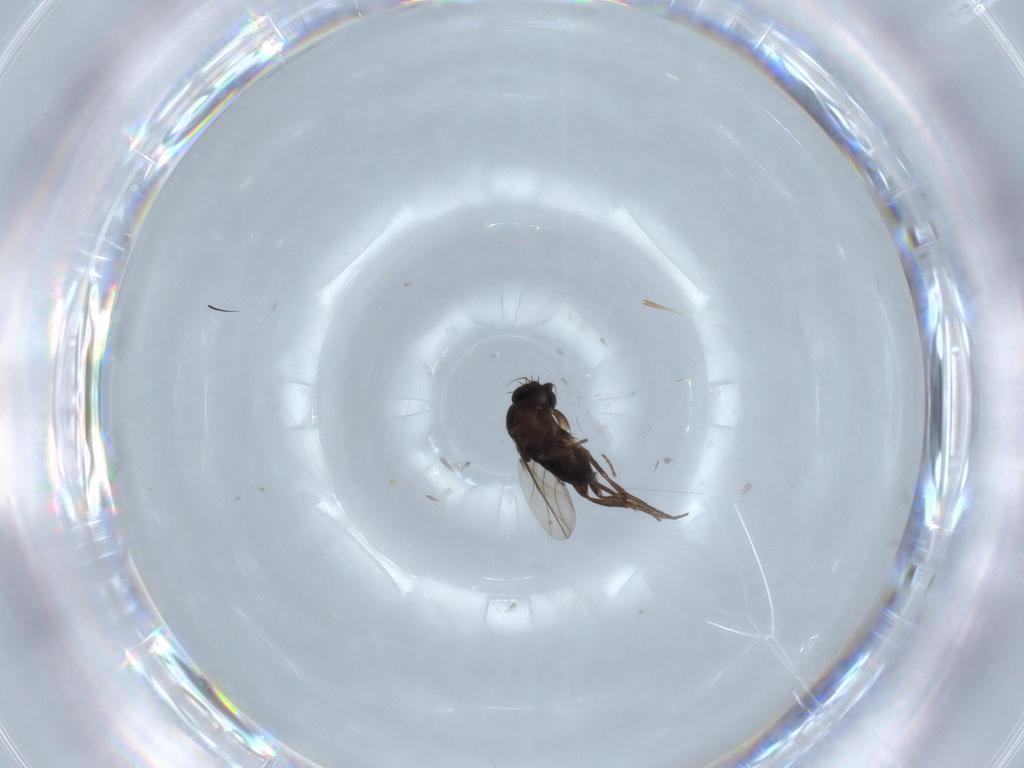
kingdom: Animalia
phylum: Arthropoda
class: Insecta
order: Diptera
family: Phoridae
